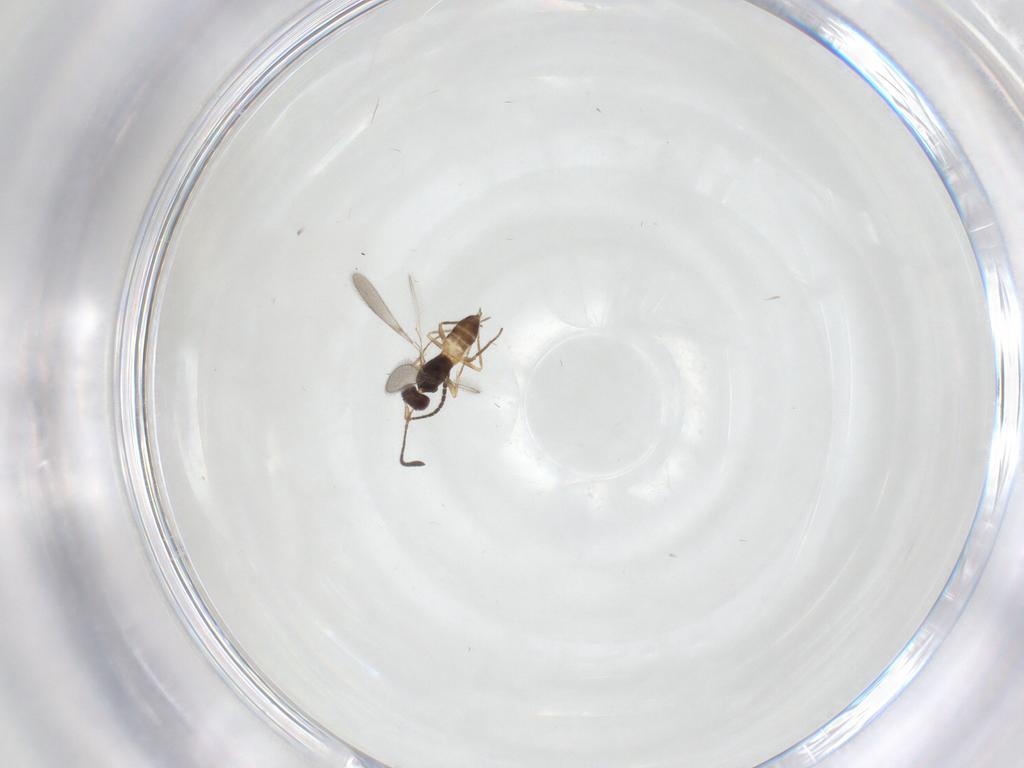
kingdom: Animalia
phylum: Arthropoda
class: Insecta
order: Hymenoptera
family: Mymaridae
